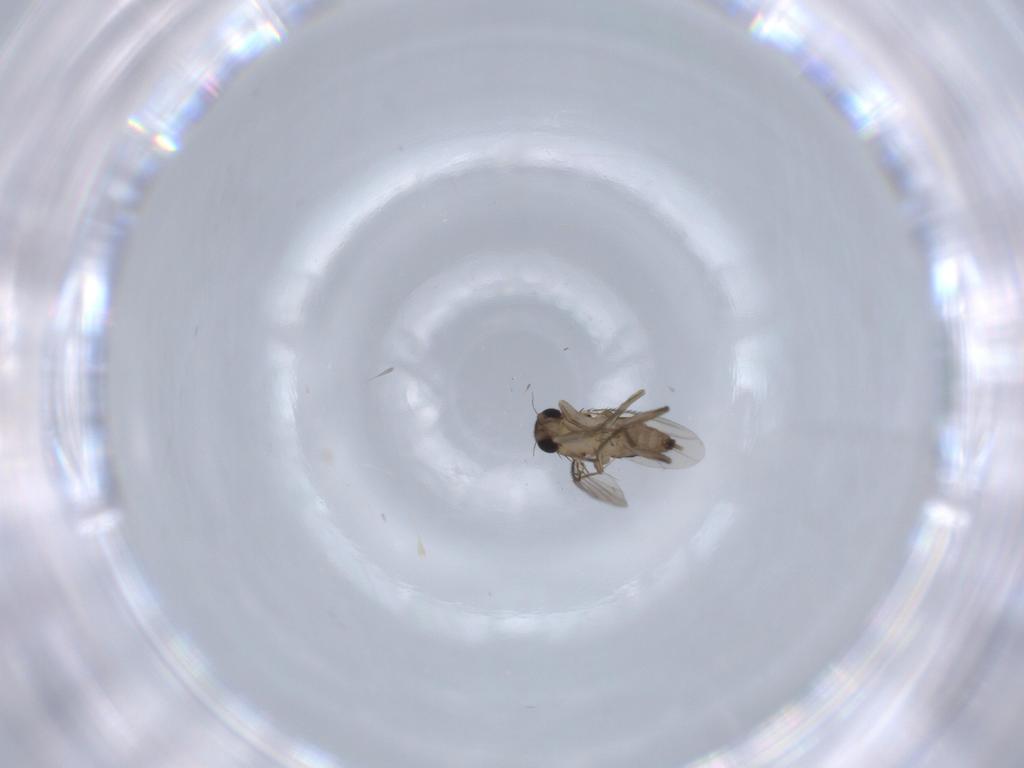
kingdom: Animalia
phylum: Arthropoda
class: Insecta
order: Diptera
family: Phoridae
